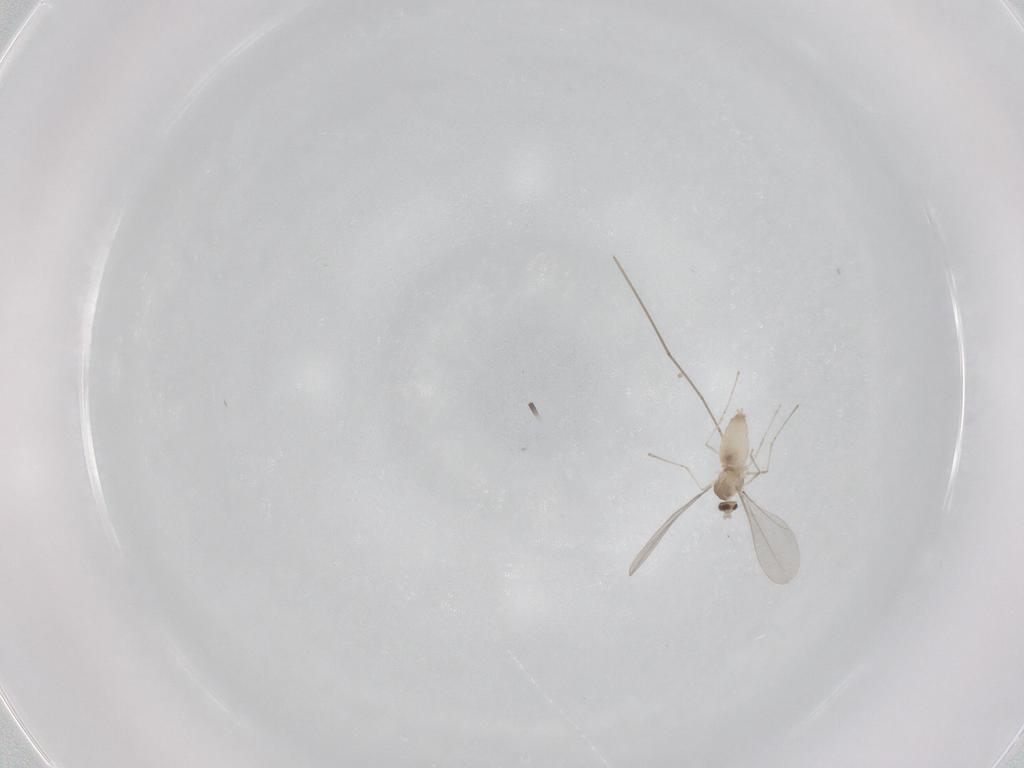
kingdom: Animalia
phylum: Arthropoda
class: Insecta
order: Diptera
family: Cecidomyiidae
